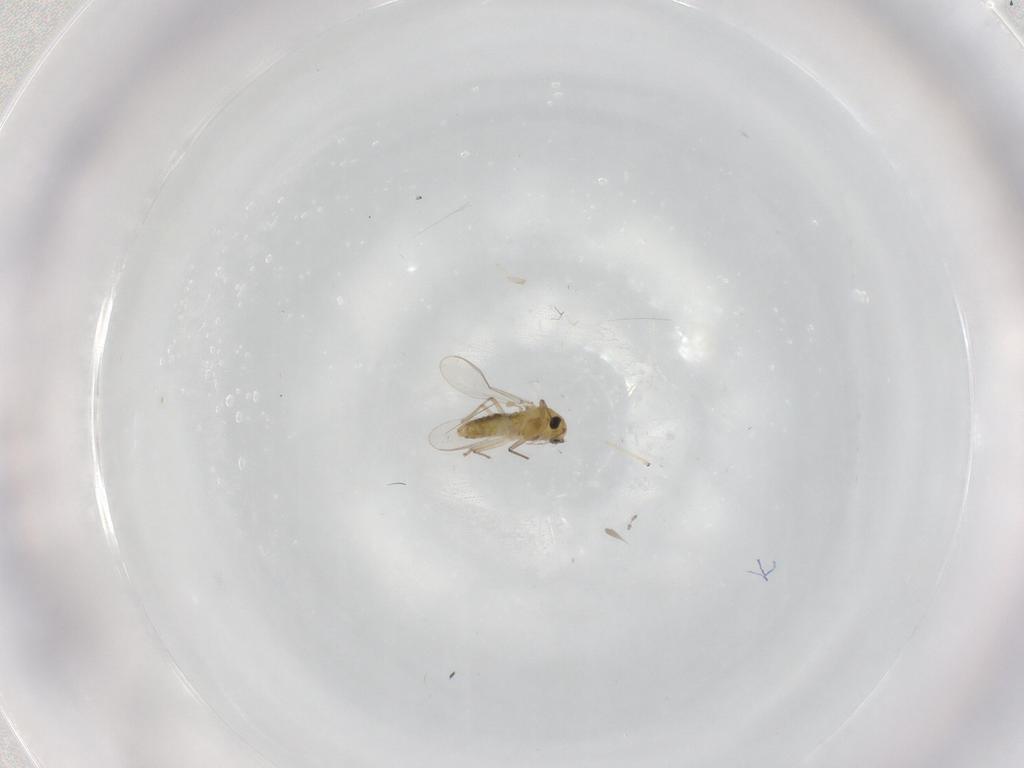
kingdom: Animalia
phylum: Arthropoda
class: Insecta
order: Diptera
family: Chironomidae
